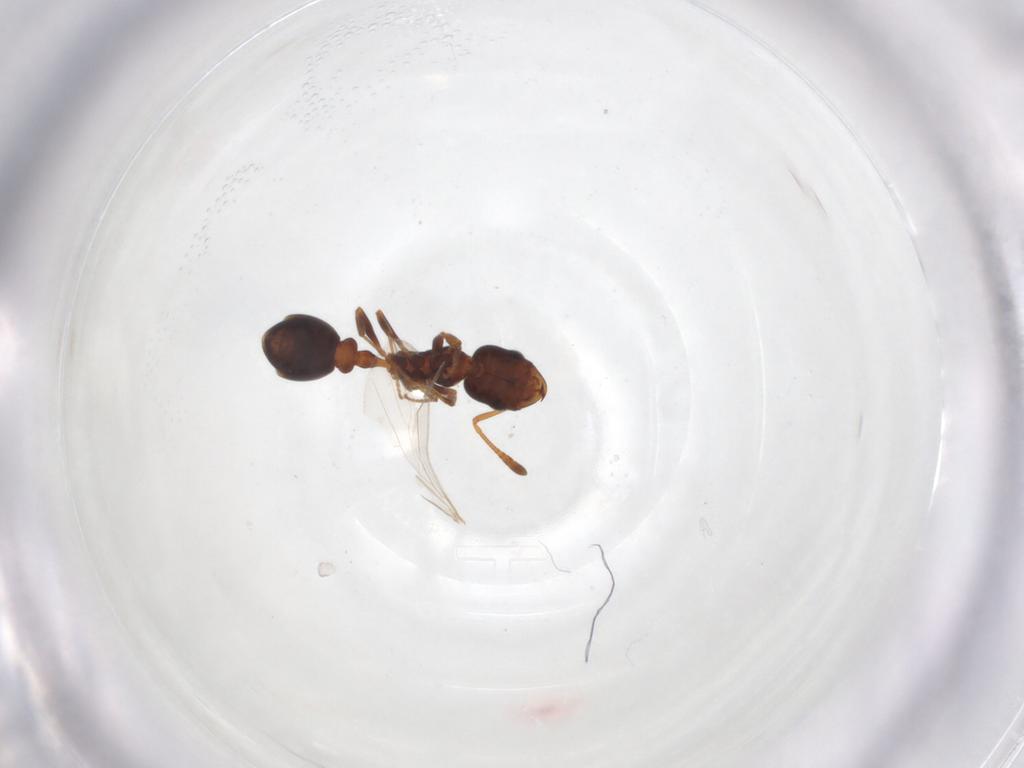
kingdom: Animalia
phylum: Arthropoda
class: Insecta
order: Hymenoptera
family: Formicidae
